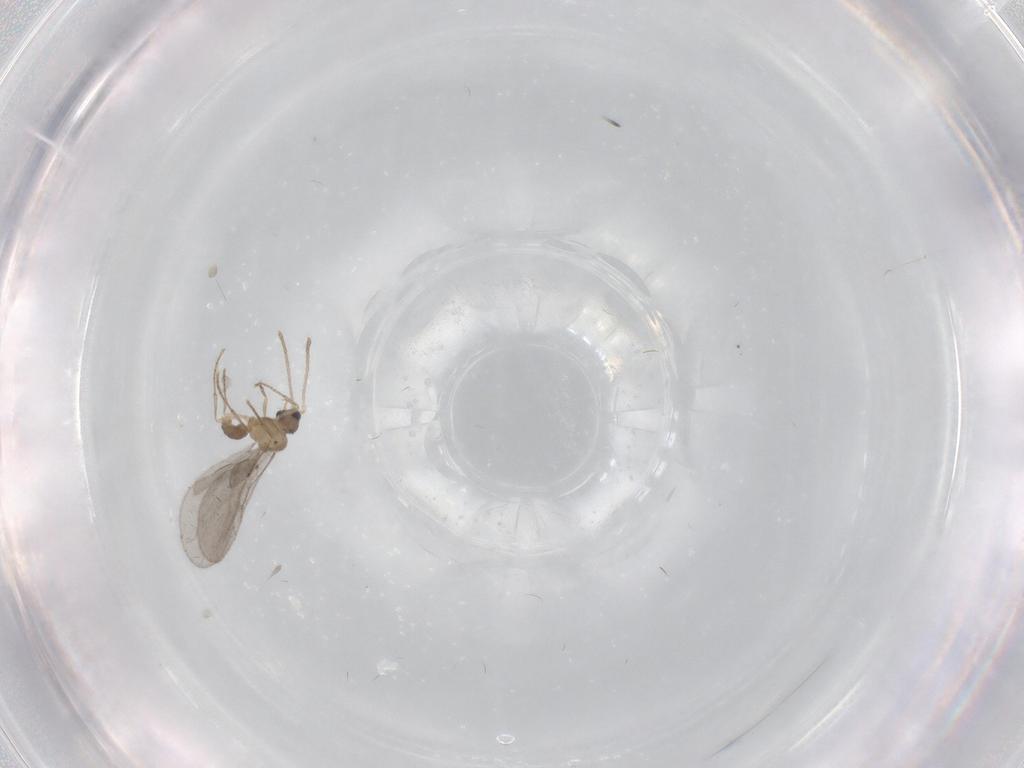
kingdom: Animalia
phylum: Arthropoda
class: Insecta
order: Hymenoptera
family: Formicidae
